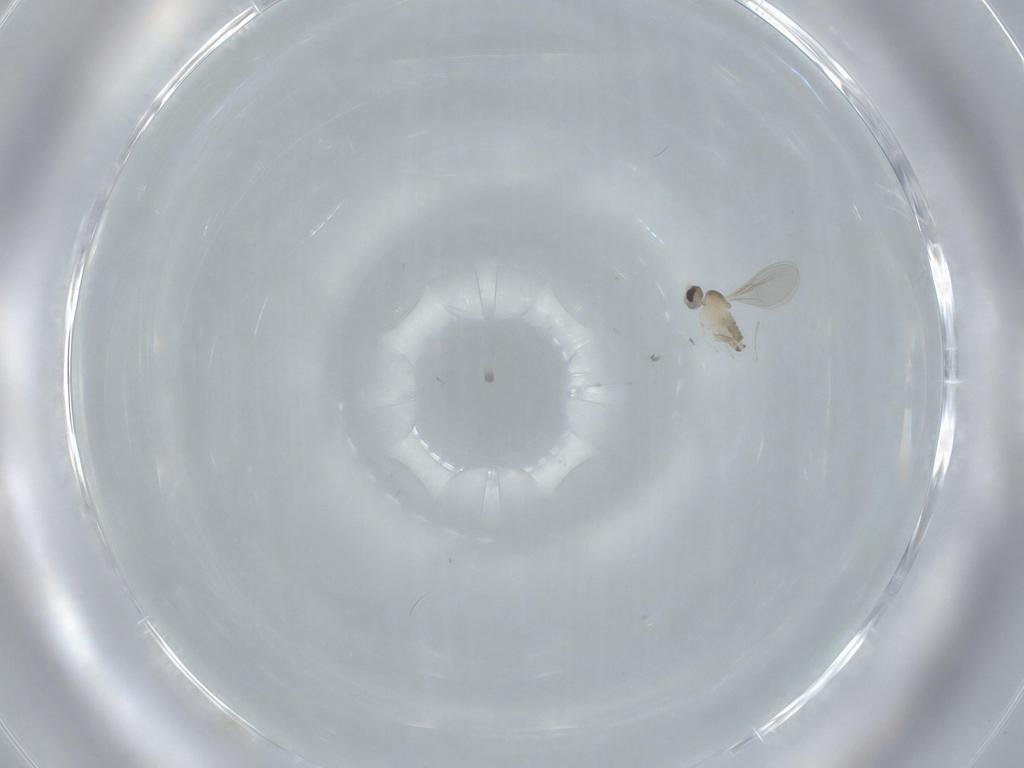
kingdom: Animalia
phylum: Arthropoda
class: Insecta
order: Diptera
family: Cecidomyiidae
